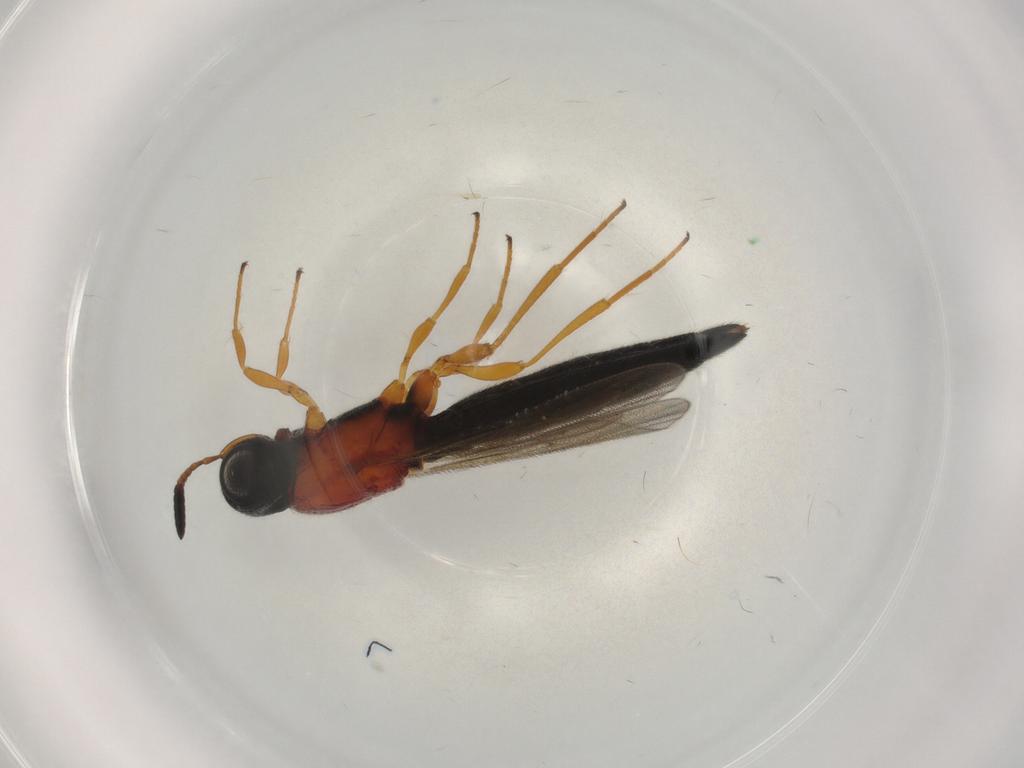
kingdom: Animalia
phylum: Arthropoda
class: Insecta
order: Hymenoptera
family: Scelionidae
